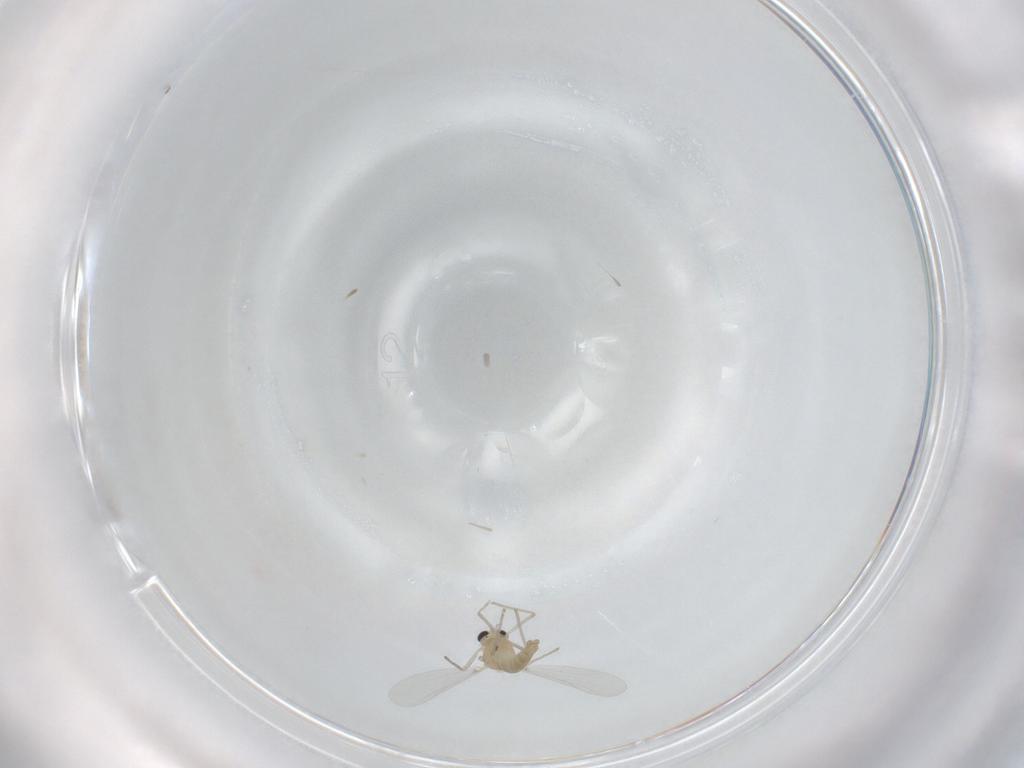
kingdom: Animalia
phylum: Arthropoda
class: Insecta
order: Diptera
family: Chironomidae
